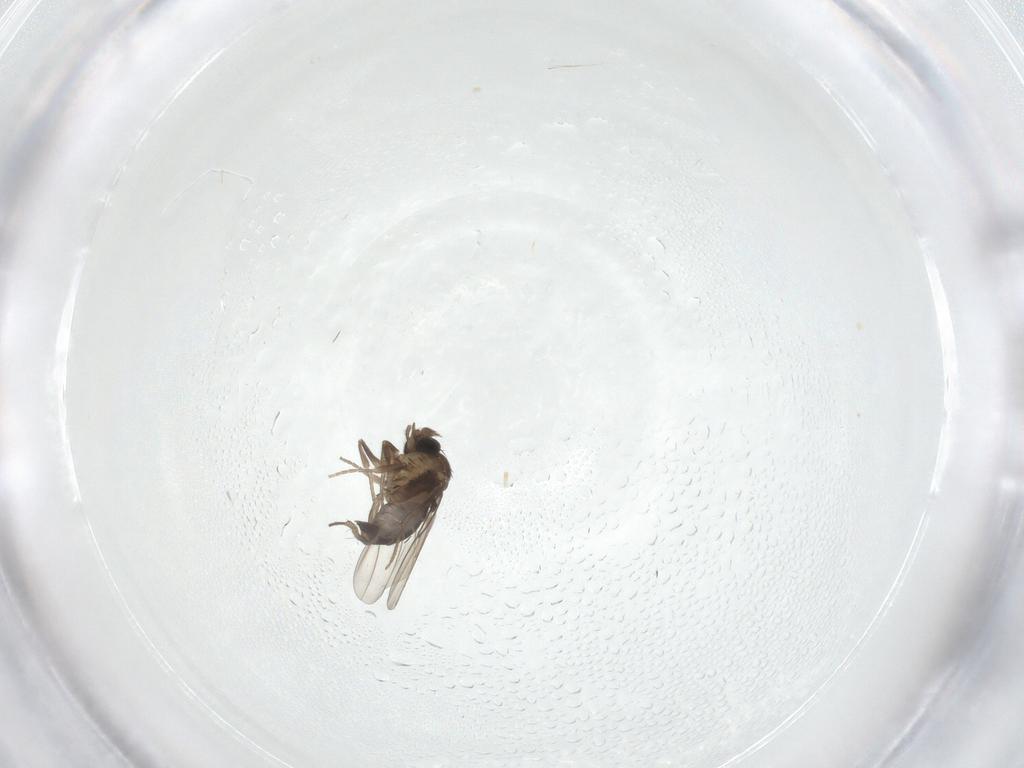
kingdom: Animalia
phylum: Arthropoda
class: Insecta
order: Diptera
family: Phoridae
